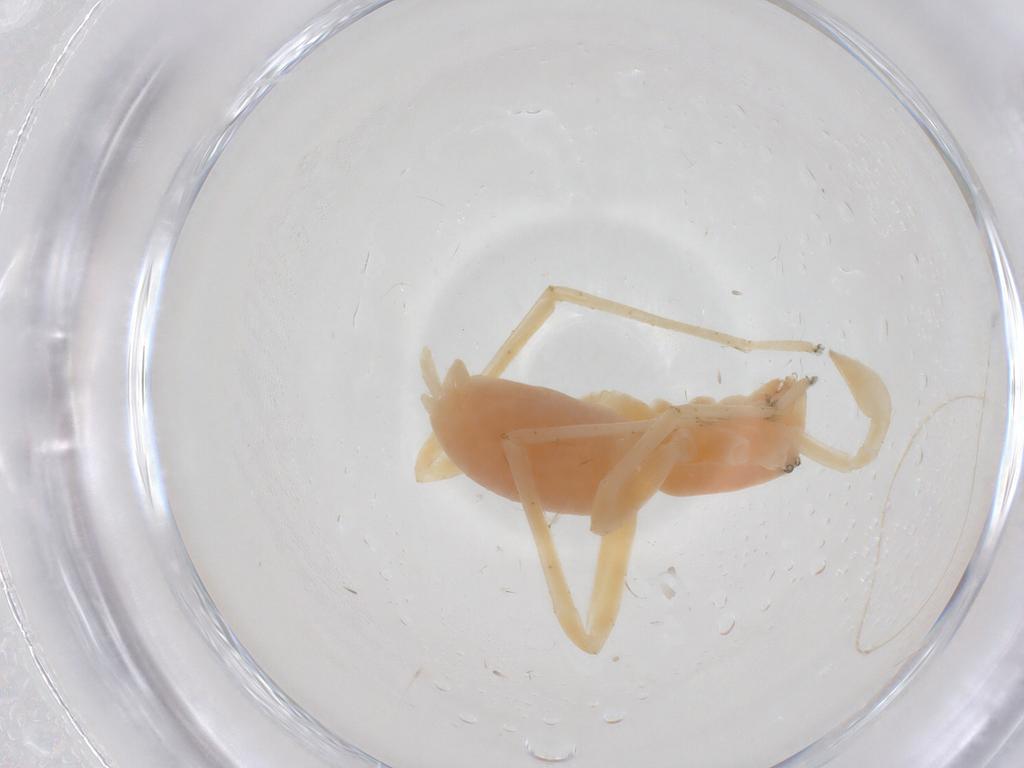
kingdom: Animalia
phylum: Arthropoda
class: Arachnida
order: Araneae
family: Anyphaenidae
